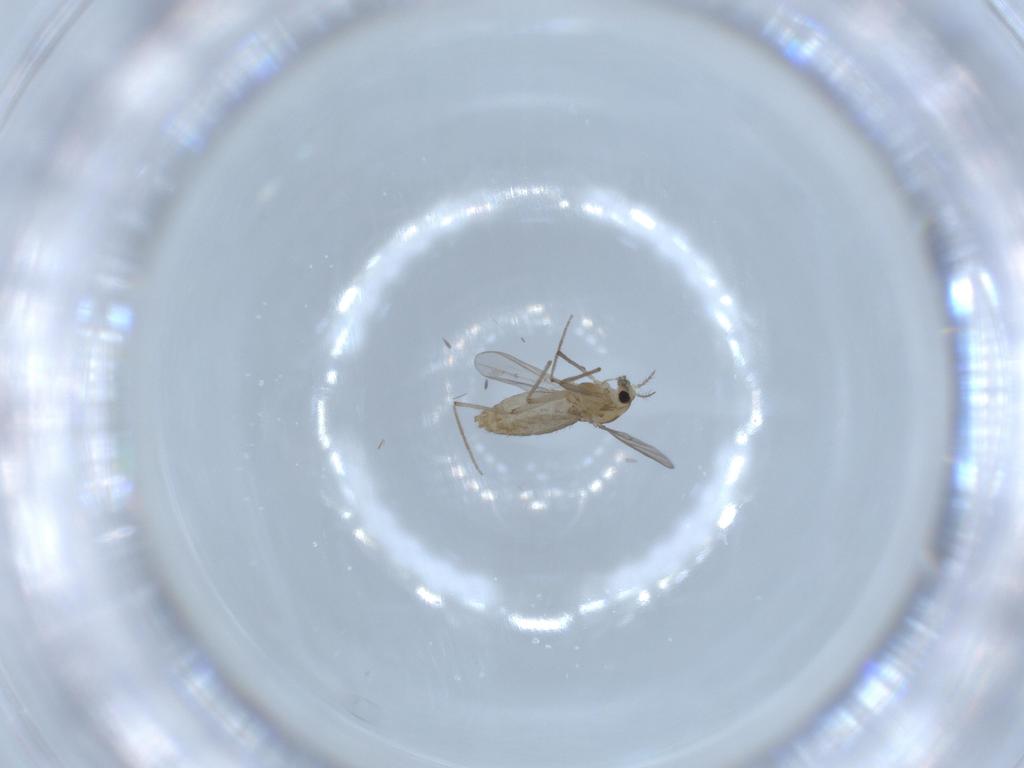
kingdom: Animalia
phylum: Arthropoda
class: Insecta
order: Diptera
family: Chironomidae
